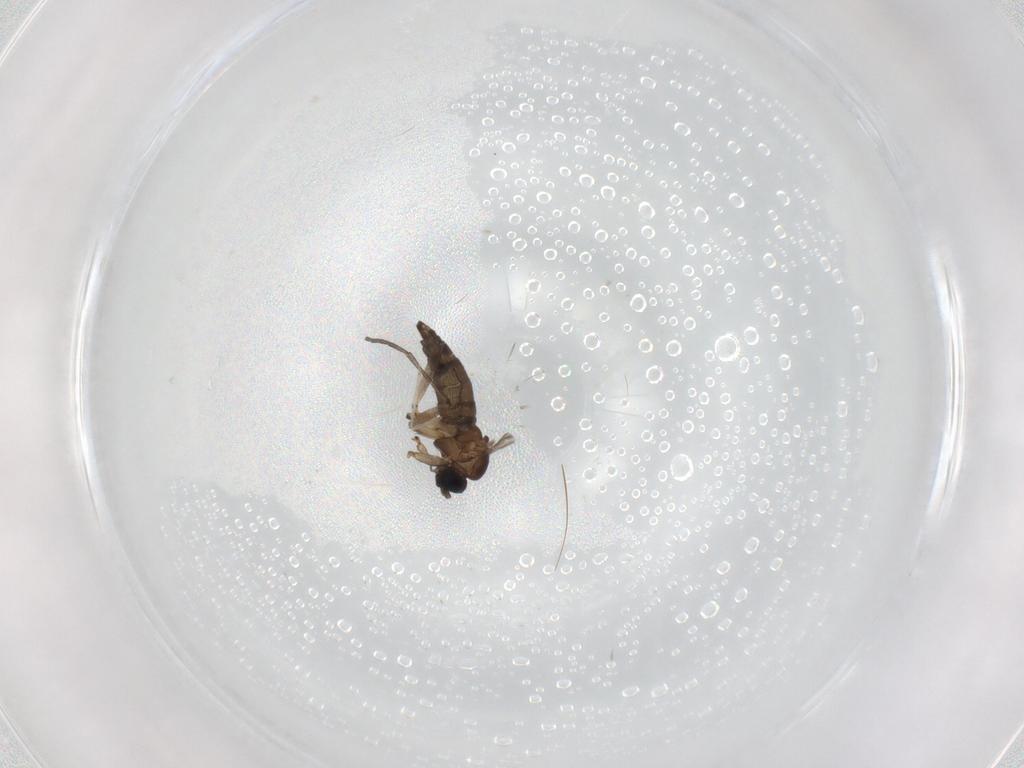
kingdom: Animalia
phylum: Arthropoda
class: Insecta
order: Diptera
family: Cecidomyiidae
